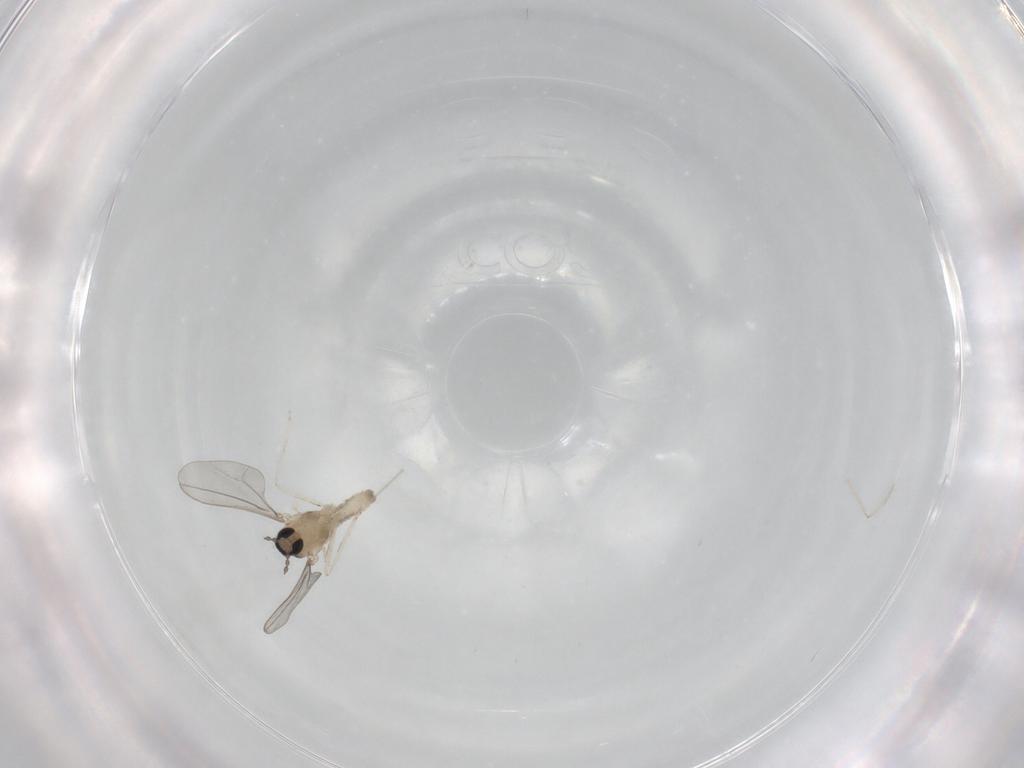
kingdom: Animalia
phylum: Arthropoda
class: Insecta
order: Diptera
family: Cecidomyiidae
